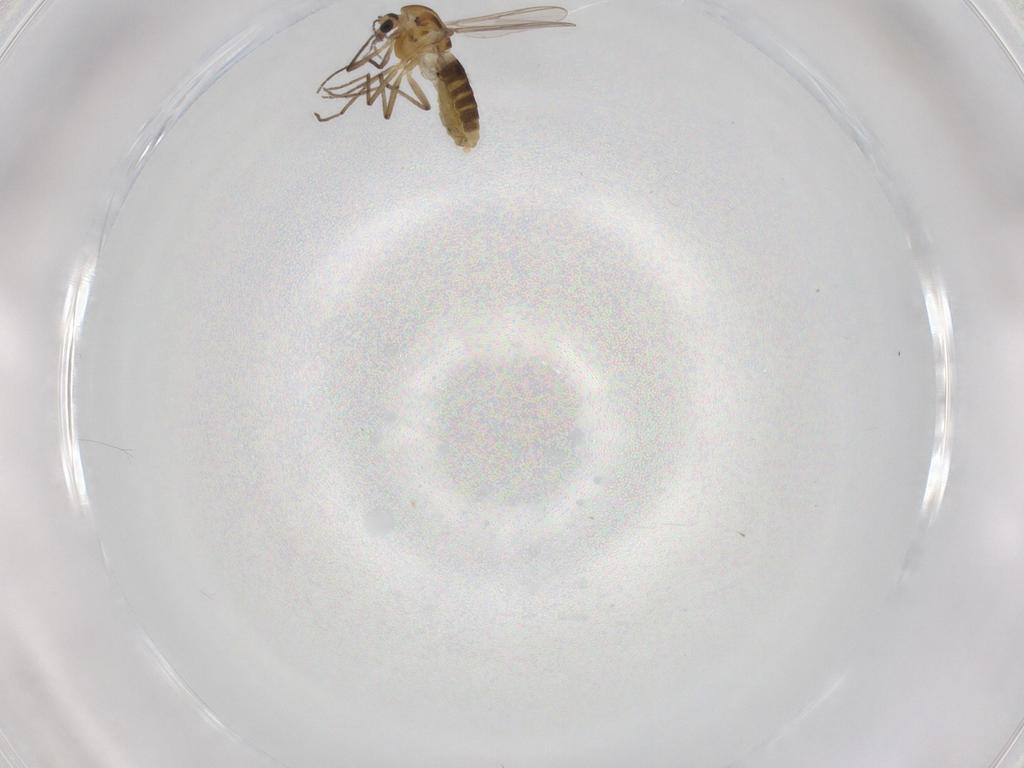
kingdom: Animalia
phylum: Arthropoda
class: Insecta
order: Diptera
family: Chironomidae
